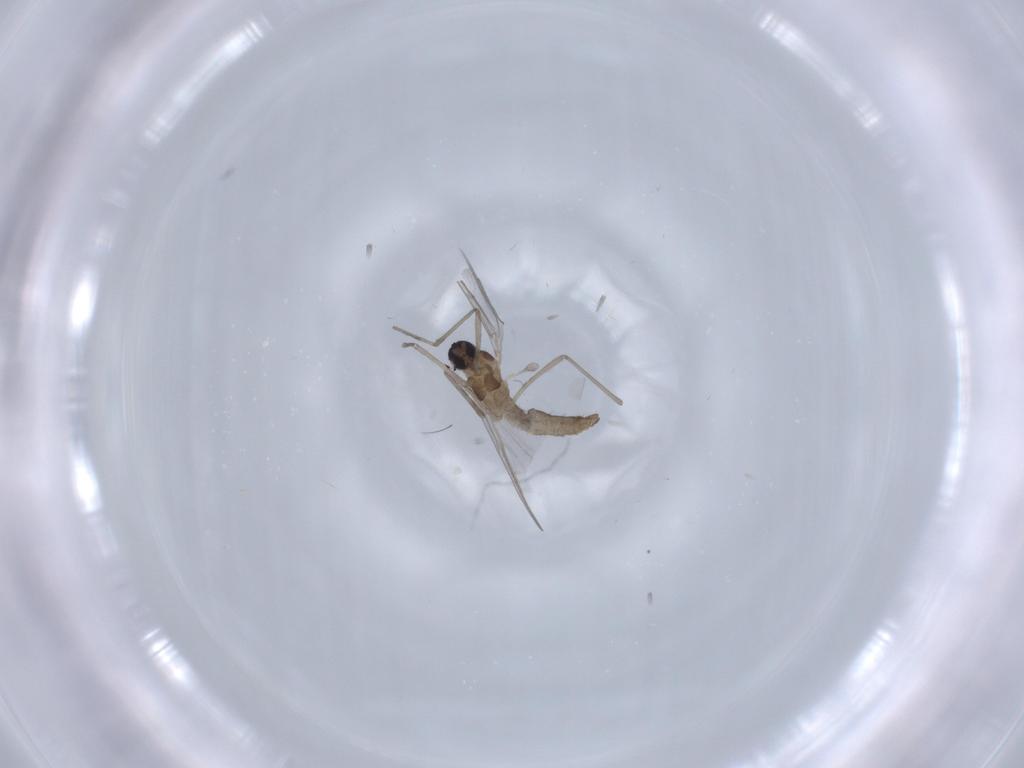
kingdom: Animalia
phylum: Arthropoda
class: Insecta
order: Diptera
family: Cecidomyiidae
